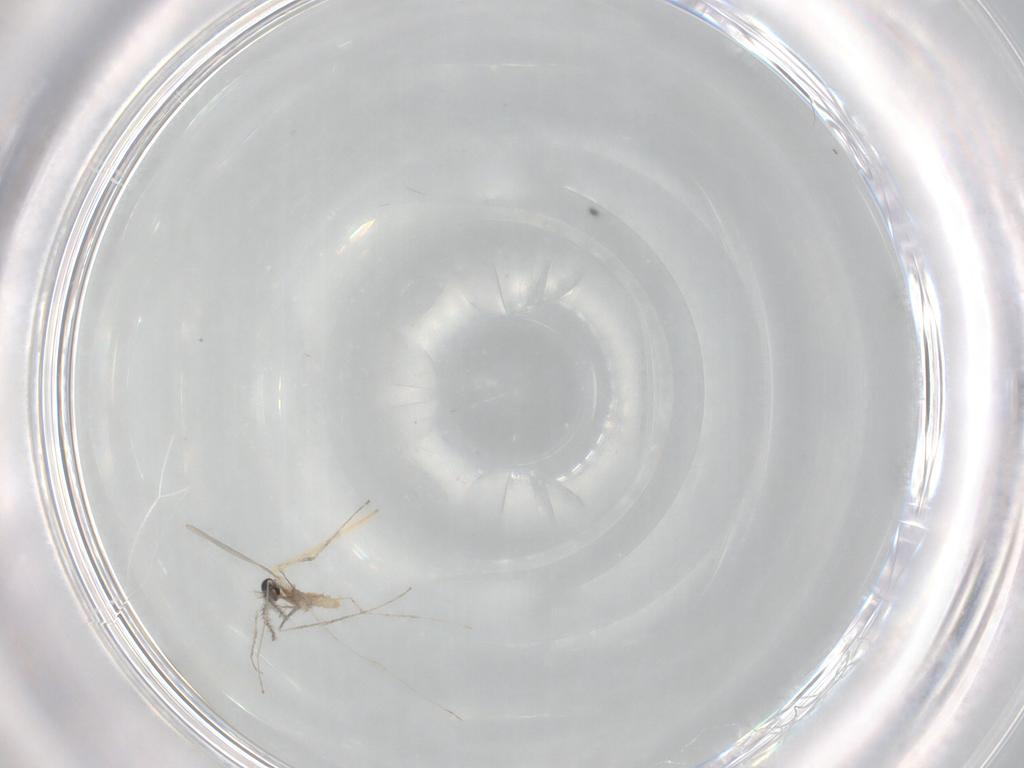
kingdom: Animalia
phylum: Arthropoda
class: Insecta
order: Diptera
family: Cecidomyiidae
